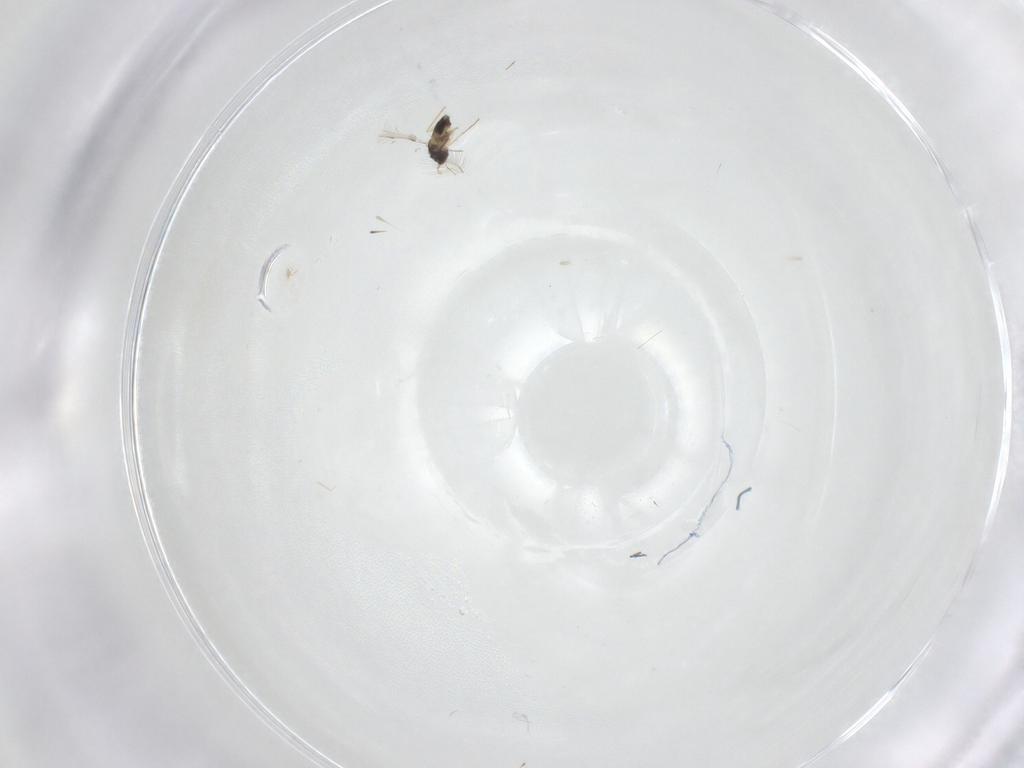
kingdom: Animalia
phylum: Arthropoda
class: Insecta
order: Hymenoptera
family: Mymaridae
